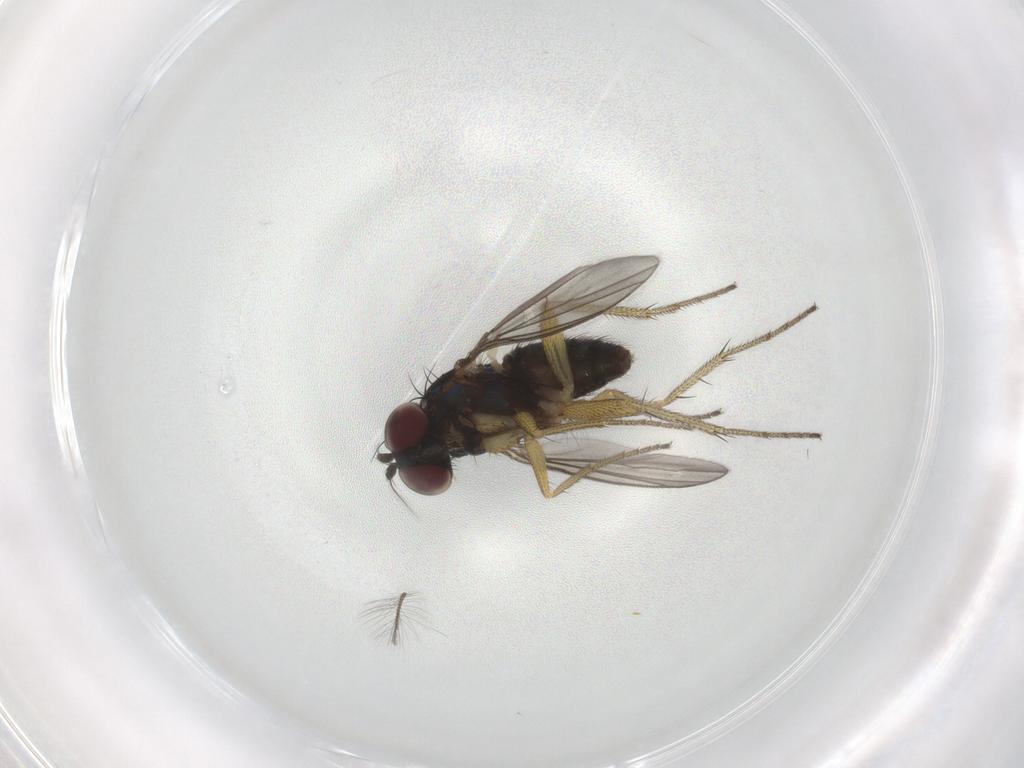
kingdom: Animalia
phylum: Arthropoda
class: Insecta
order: Diptera
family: Dolichopodidae
